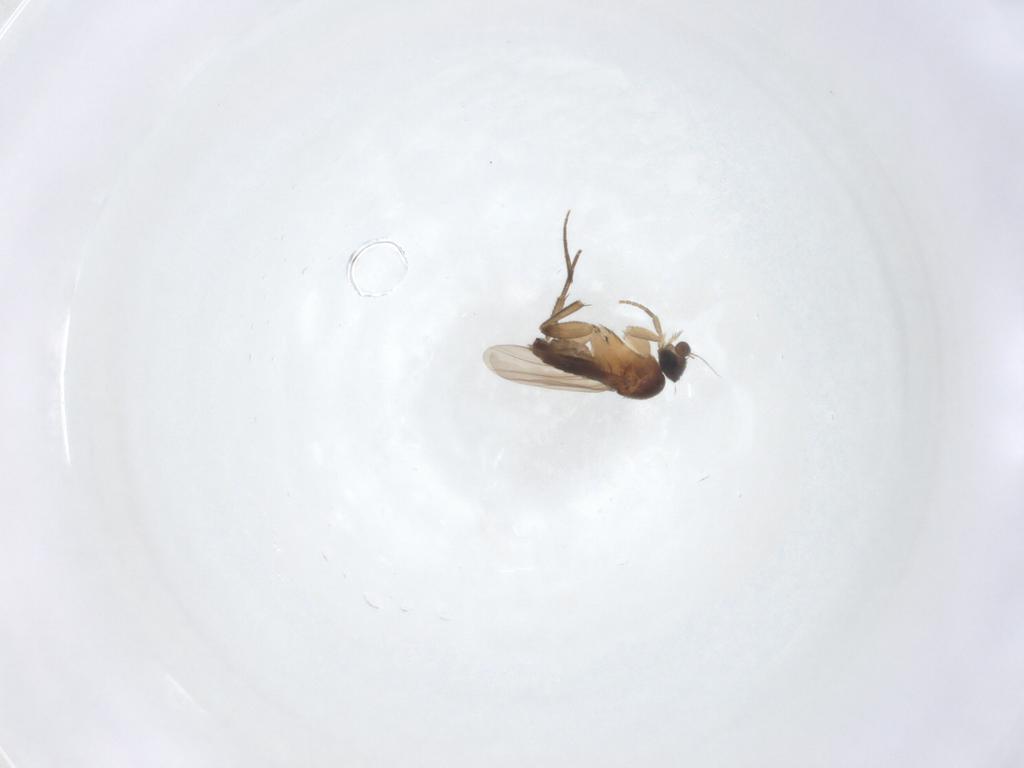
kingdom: Animalia
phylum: Arthropoda
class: Insecta
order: Diptera
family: Phoridae
